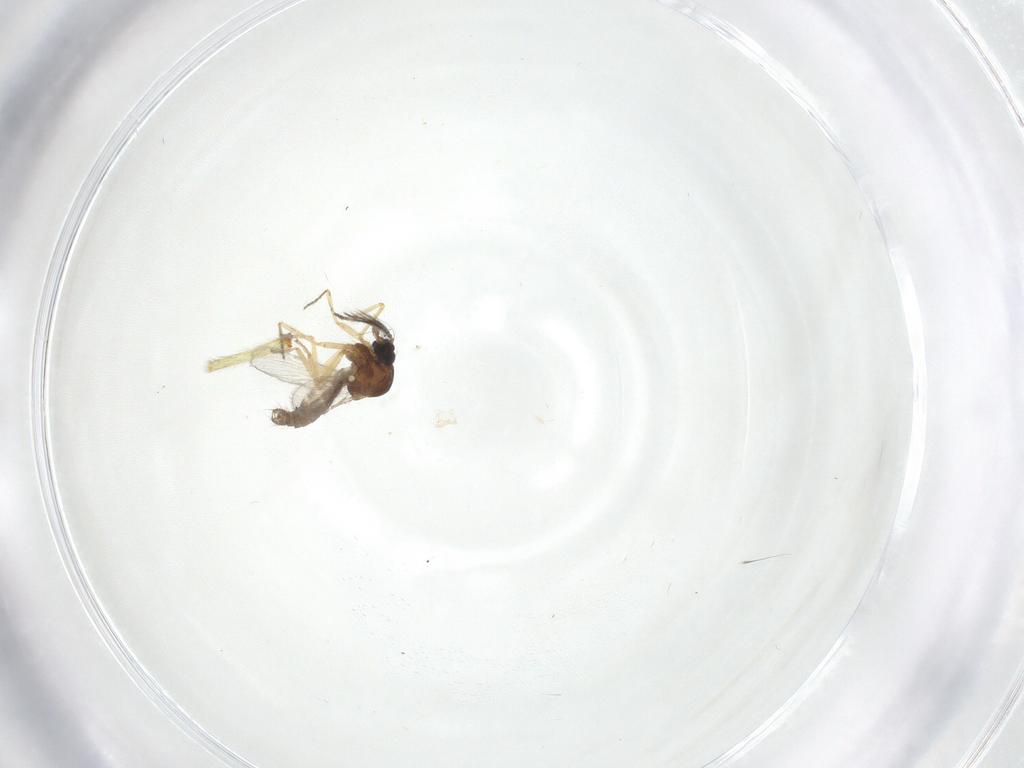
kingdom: Animalia
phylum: Arthropoda
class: Insecta
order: Diptera
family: Ceratopogonidae
